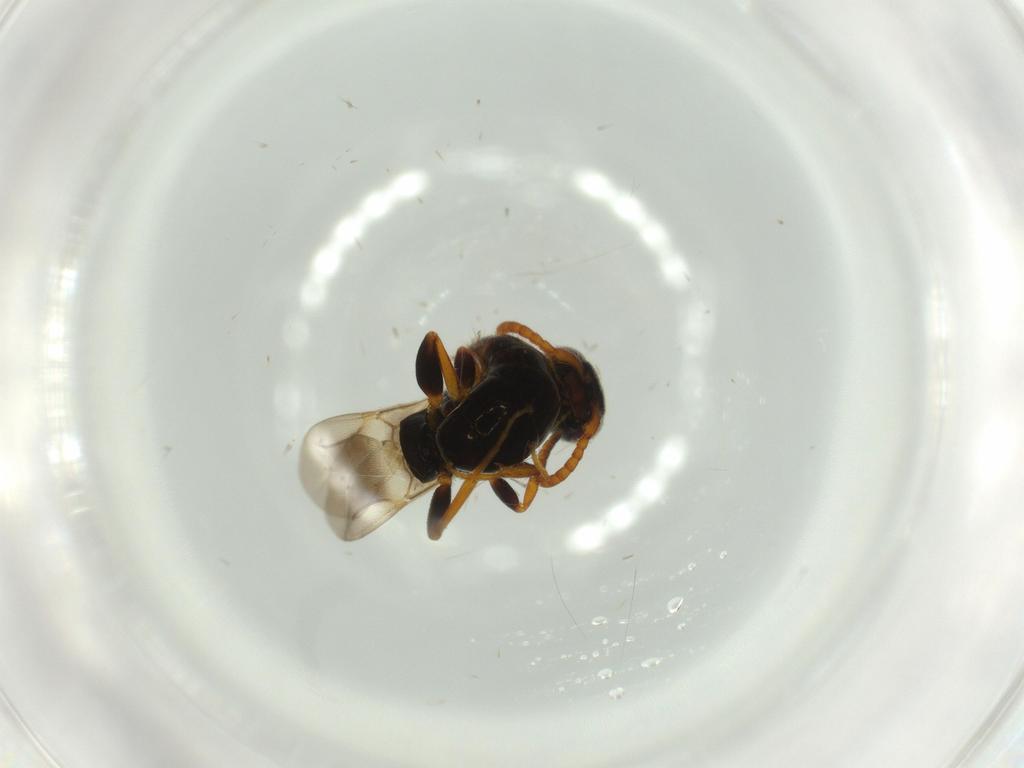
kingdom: Animalia
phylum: Arthropoda
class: Insecta
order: Hymenoptera
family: Bethylidae
